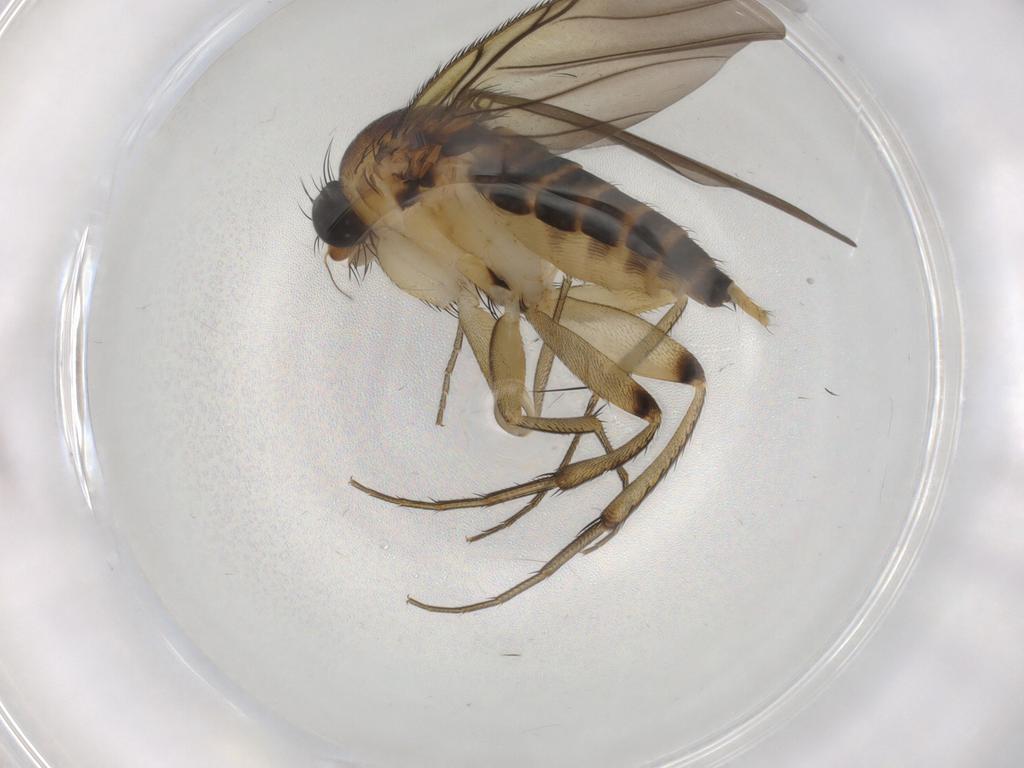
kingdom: Animalia
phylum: Arthropoda
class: Insecta
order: Diptera
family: Phoridae
